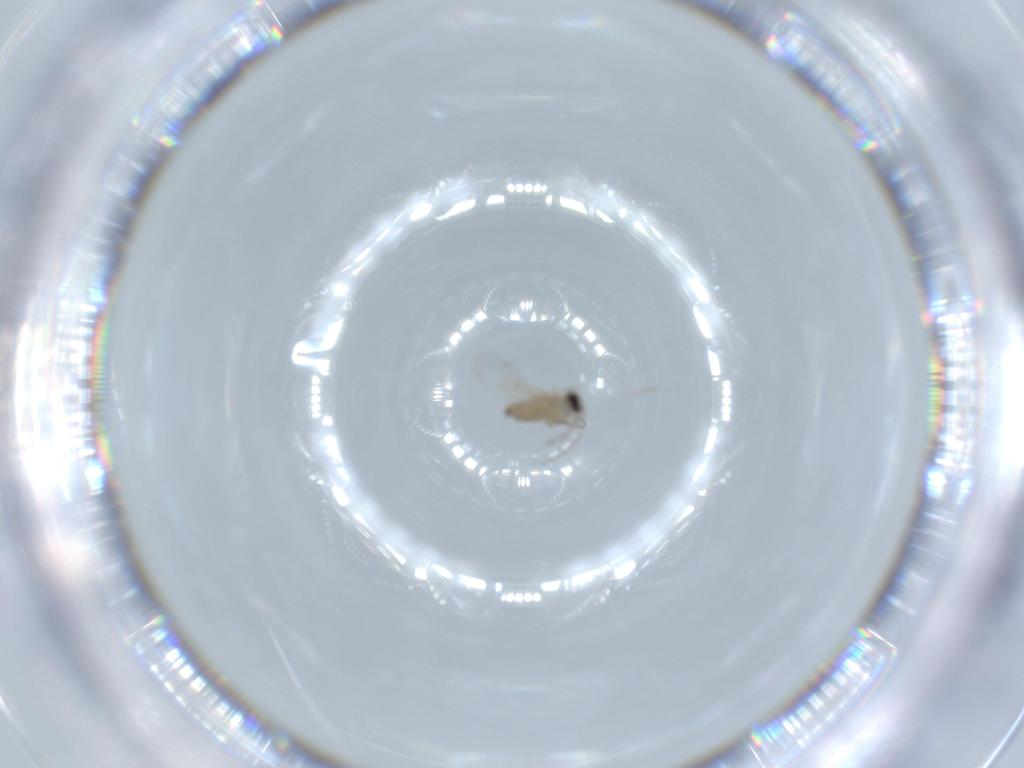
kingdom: Animalia
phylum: Arthropoda
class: Insecta
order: Diptera
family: Cecidomyiidae
